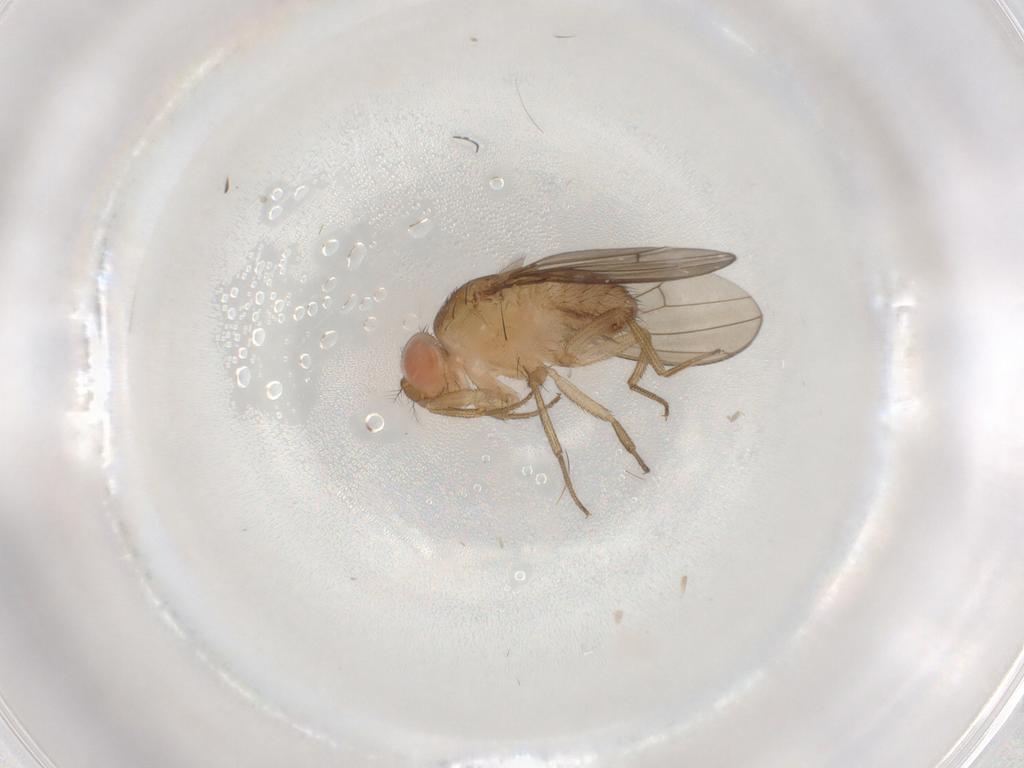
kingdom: Animalia
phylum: Arthropoda
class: Insecta
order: Diptera
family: Drosophilidae
